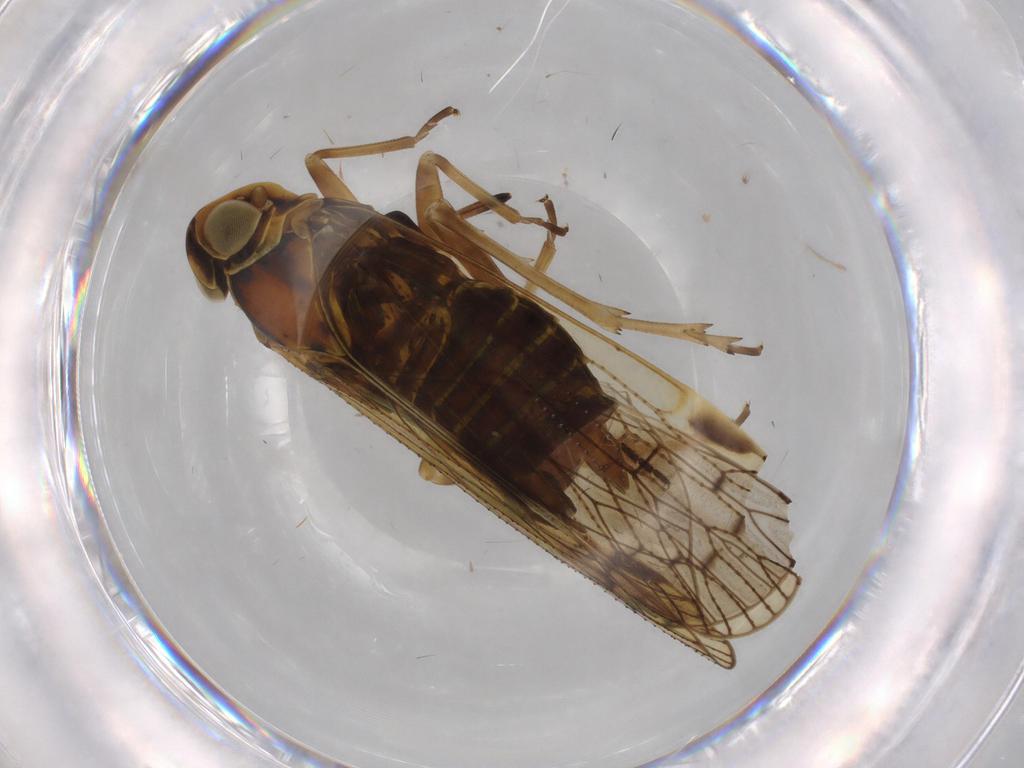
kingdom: Animalia
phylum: Arthropoda
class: Insecta
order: Hemiptera
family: Cixiidae
